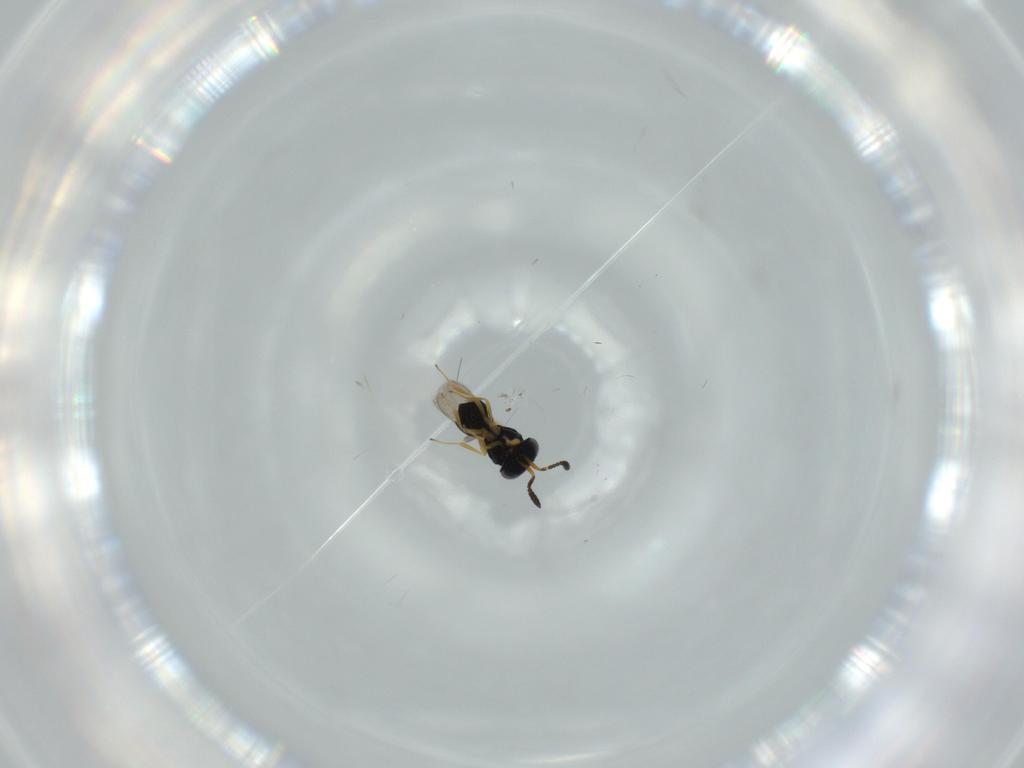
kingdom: Animalia
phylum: Arthropoda
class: Insecta
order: Hymenoptera
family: Scelionidae
